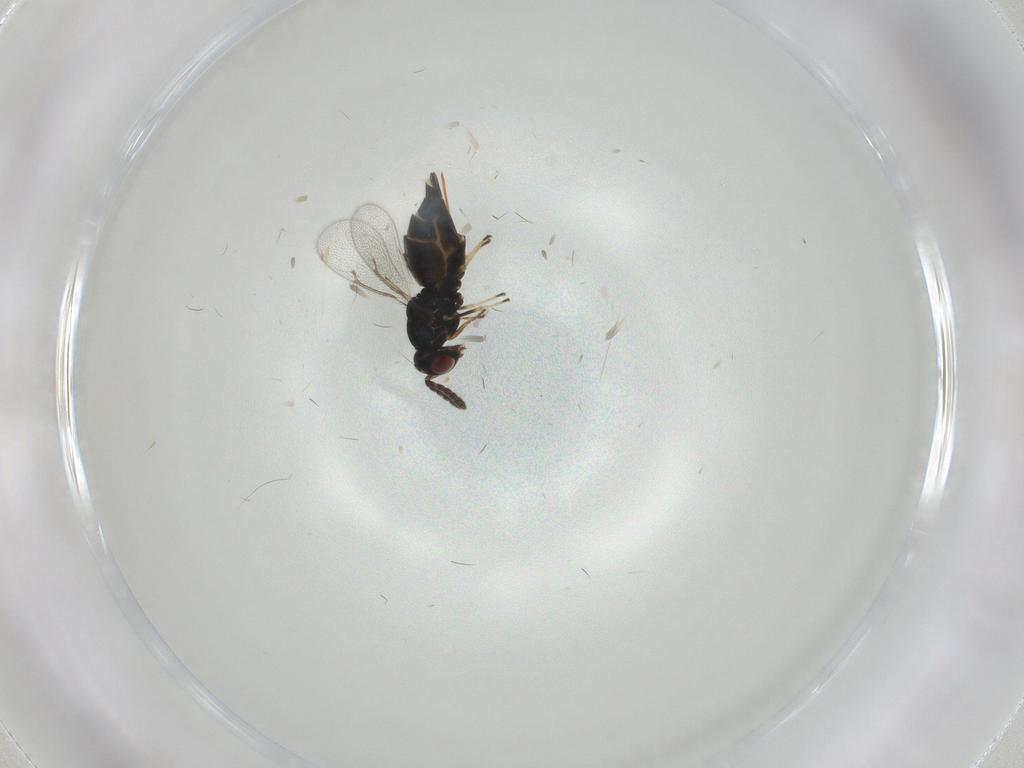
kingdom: Animalia
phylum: Arthropoda
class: Insecta
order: Hymenoptera
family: Eulophidae
